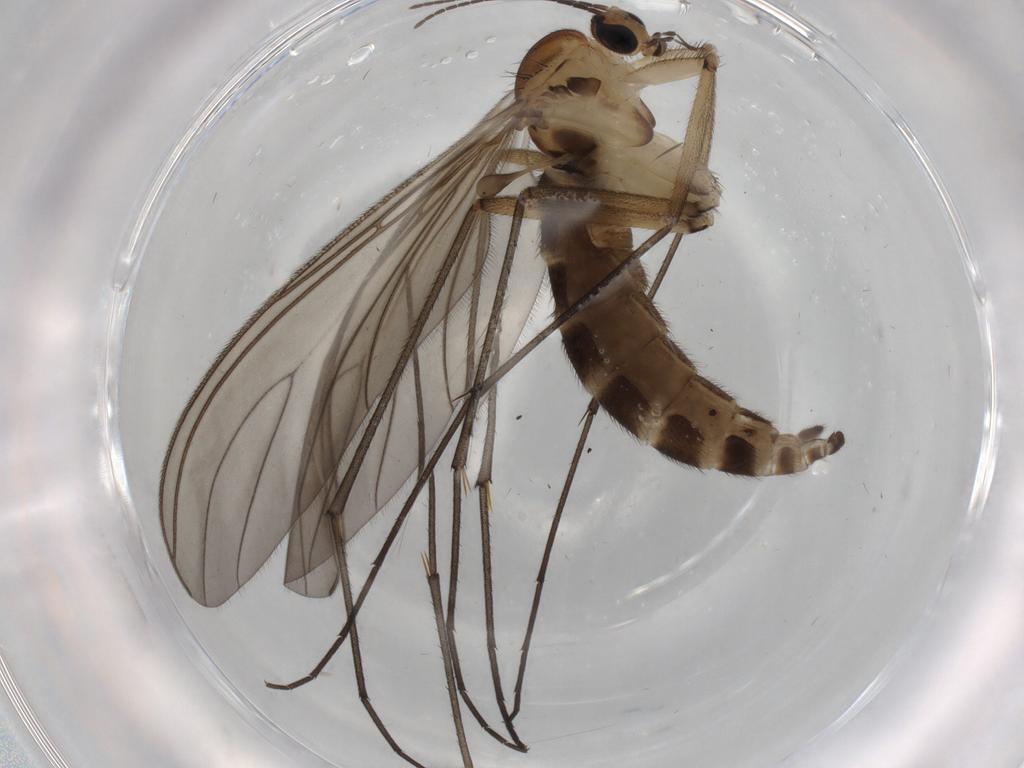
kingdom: Animalia
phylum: Arthropoda
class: Insecta
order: Diptera
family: Sciaridae
